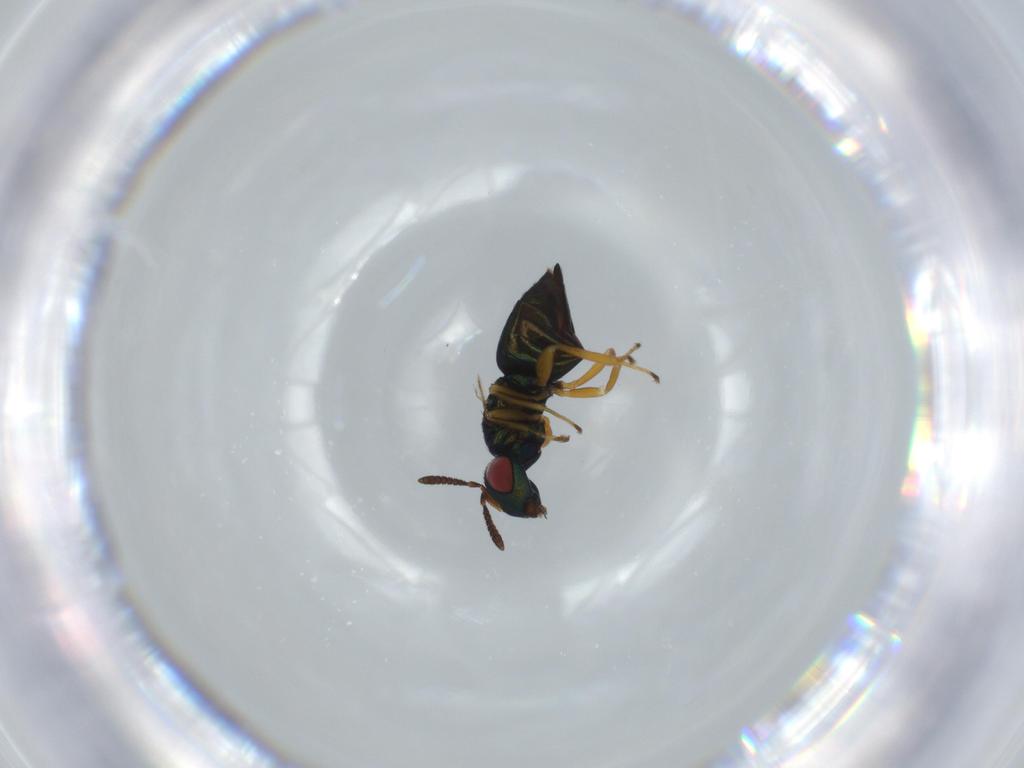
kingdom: Animalia
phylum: Arthropoda
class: Insecta
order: Hymenoptera
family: Pteromalidae
